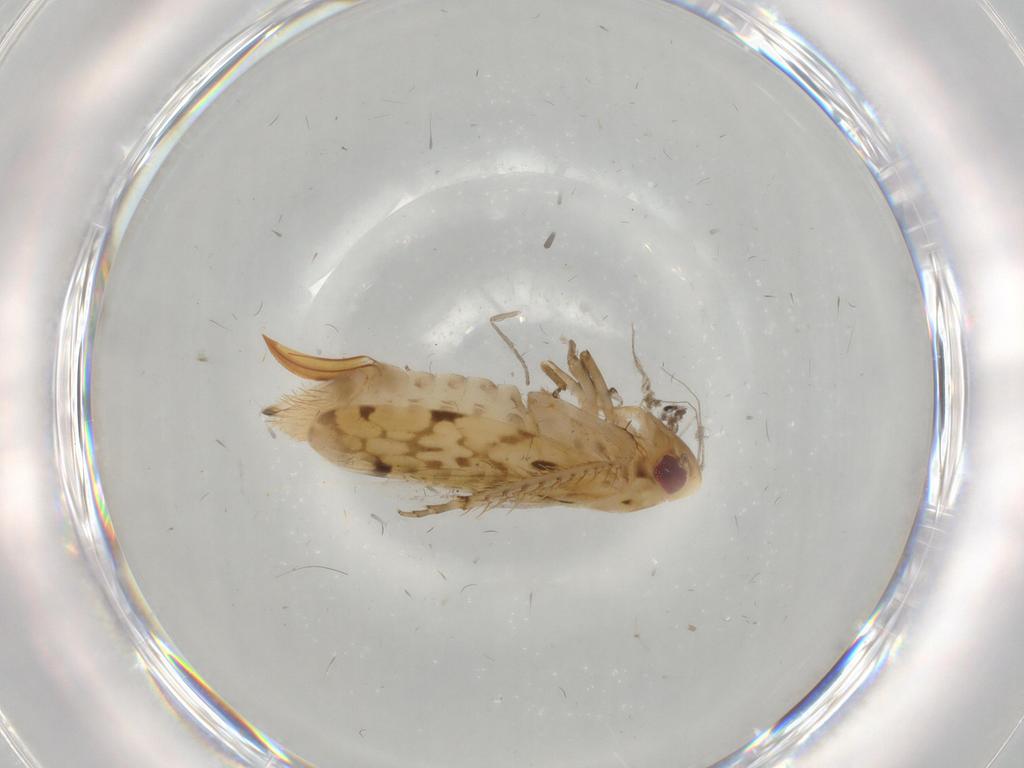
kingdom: Animalia
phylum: Arthropoda
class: Insecta
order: Hemiptera
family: Cicadellidae
